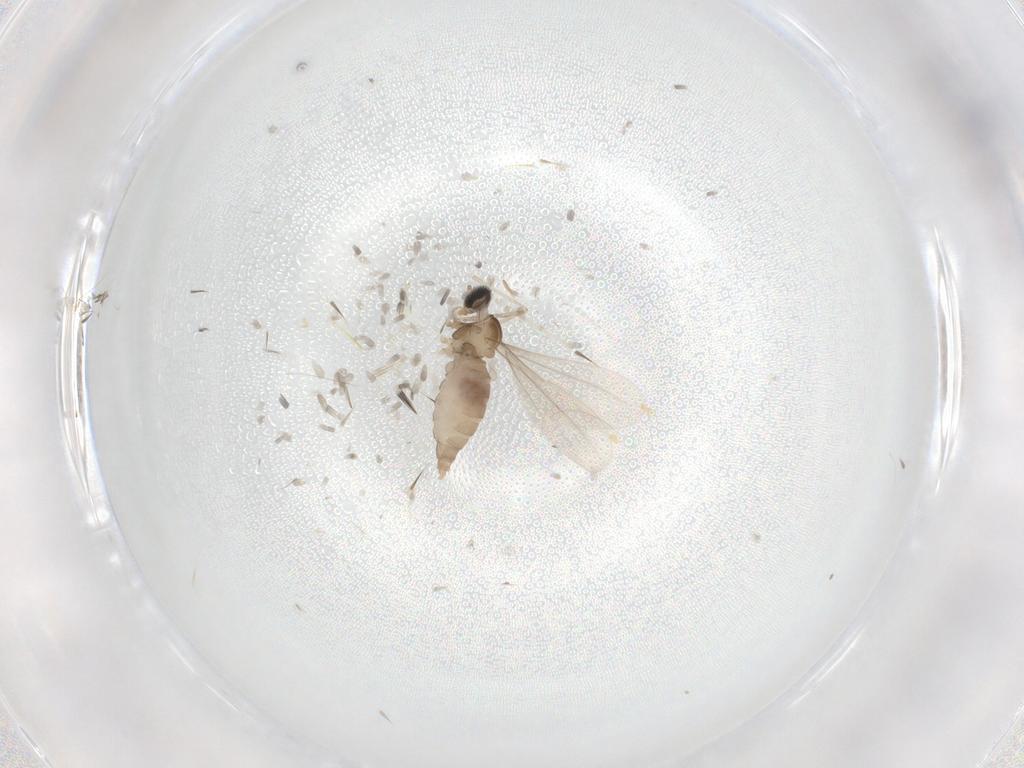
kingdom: Animalia
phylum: Arthropoda
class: Insecta
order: Diptera
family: Cecidomyiidae
